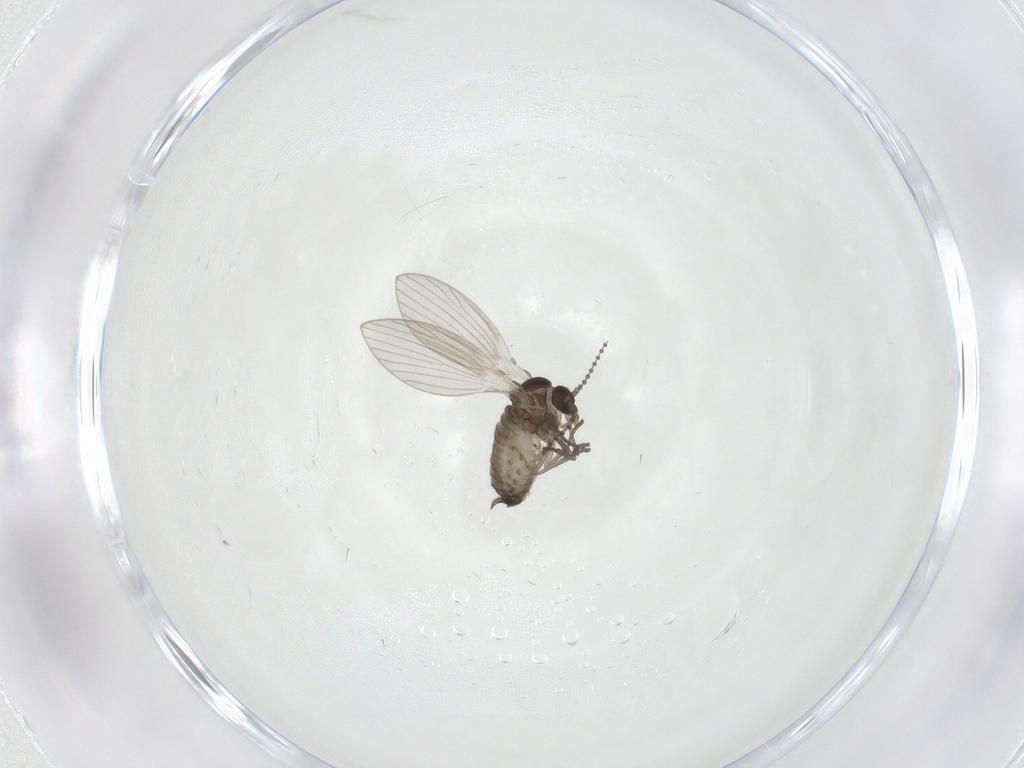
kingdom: Animalia
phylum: Arthropoda
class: Insecta
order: Diptera
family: Psychodidae
